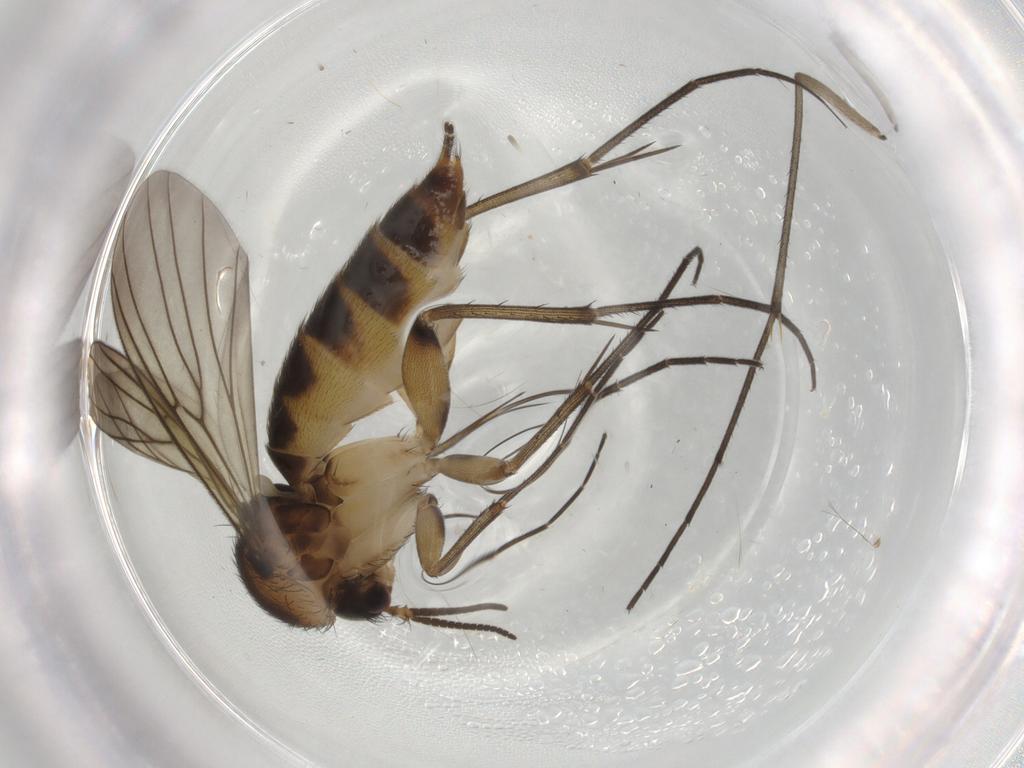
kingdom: Animalia
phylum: Arthropoda
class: Insecta
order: Diptera
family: Mycetophilidae
